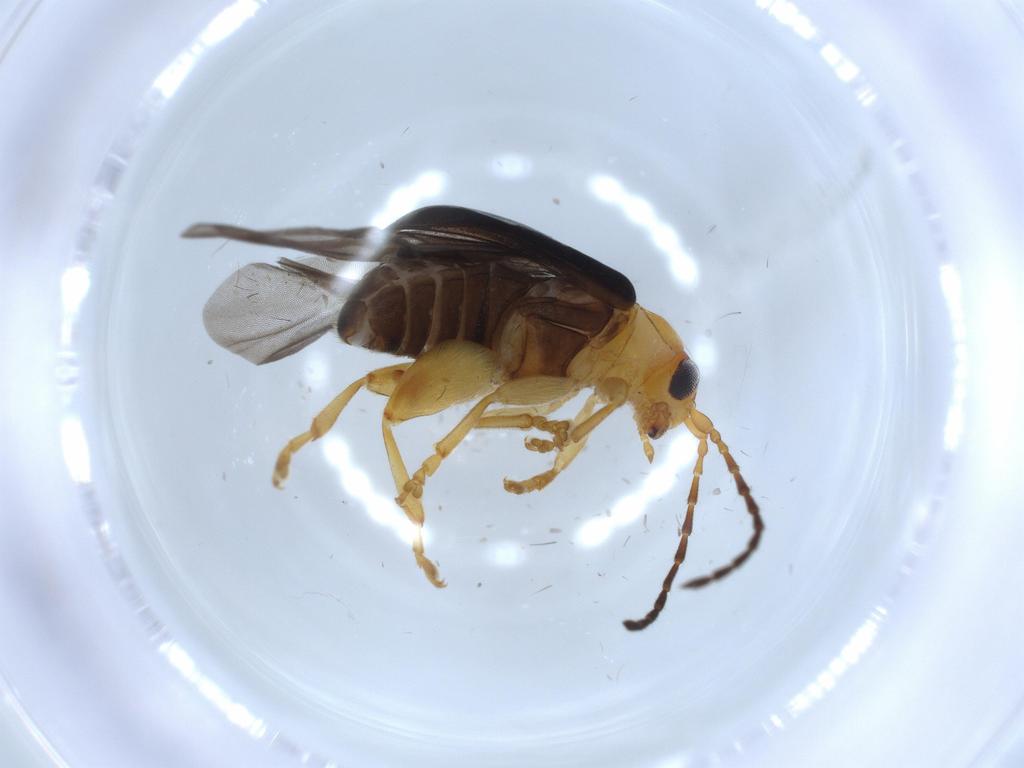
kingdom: Animalia
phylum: Arthropoda
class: Insecta
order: Coleoptera
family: Chrysomelidae
